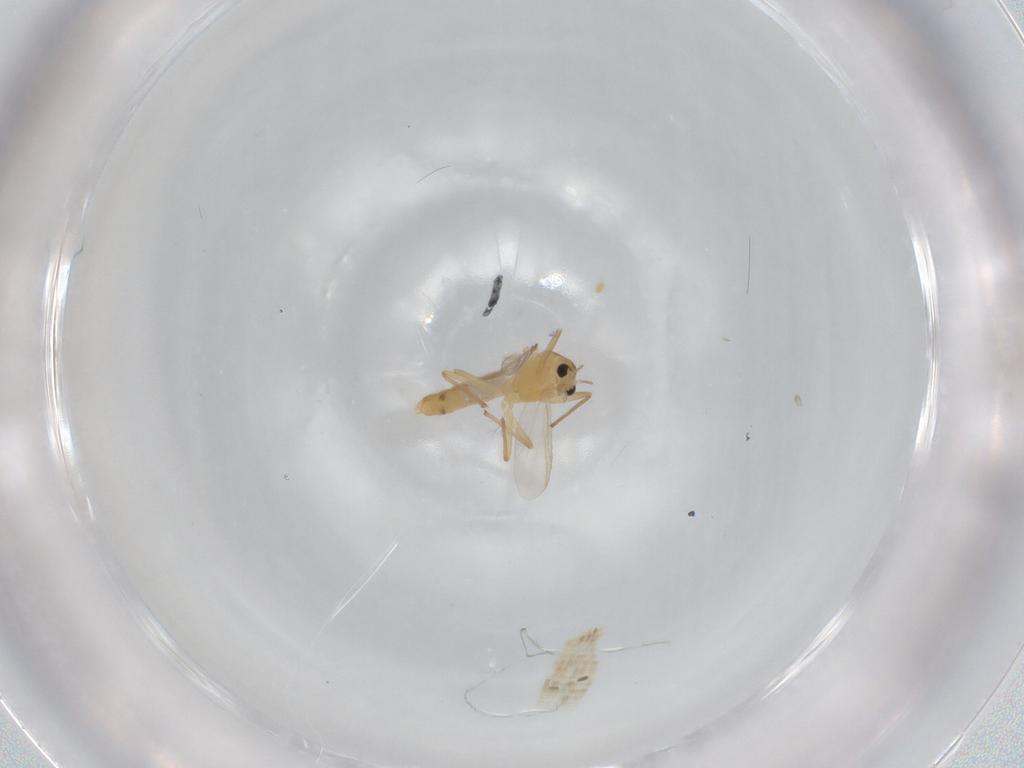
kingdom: Animalia
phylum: Arthropoda
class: Insecta
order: Diptera
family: Chironomidae
